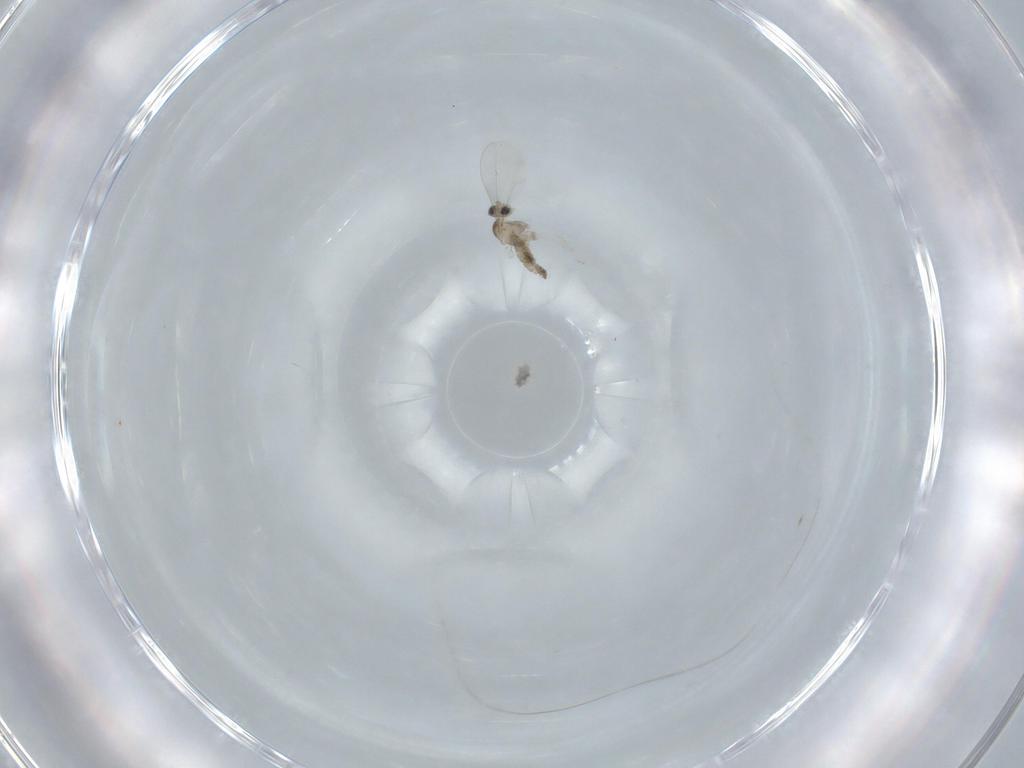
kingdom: Animalia
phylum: Arthropoda
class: Insecta
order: Diptera
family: Cecidomyiidae
